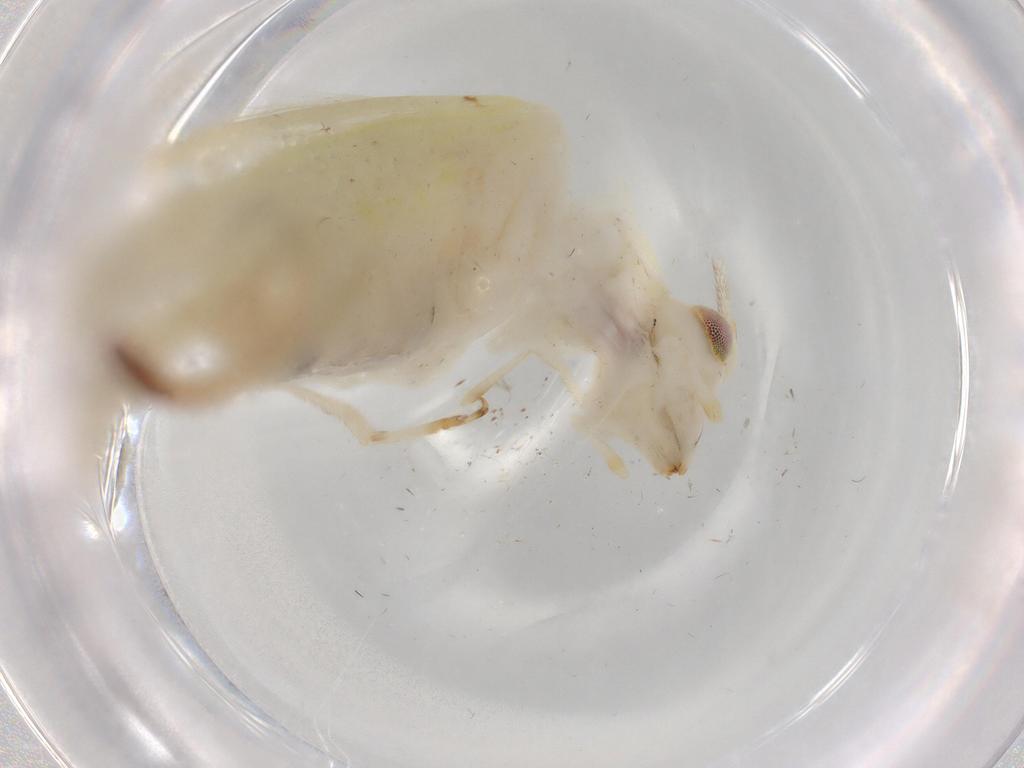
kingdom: Animalia
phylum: Arthropoda
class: Insecta
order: Orthoptera
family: Trigonidiidae
